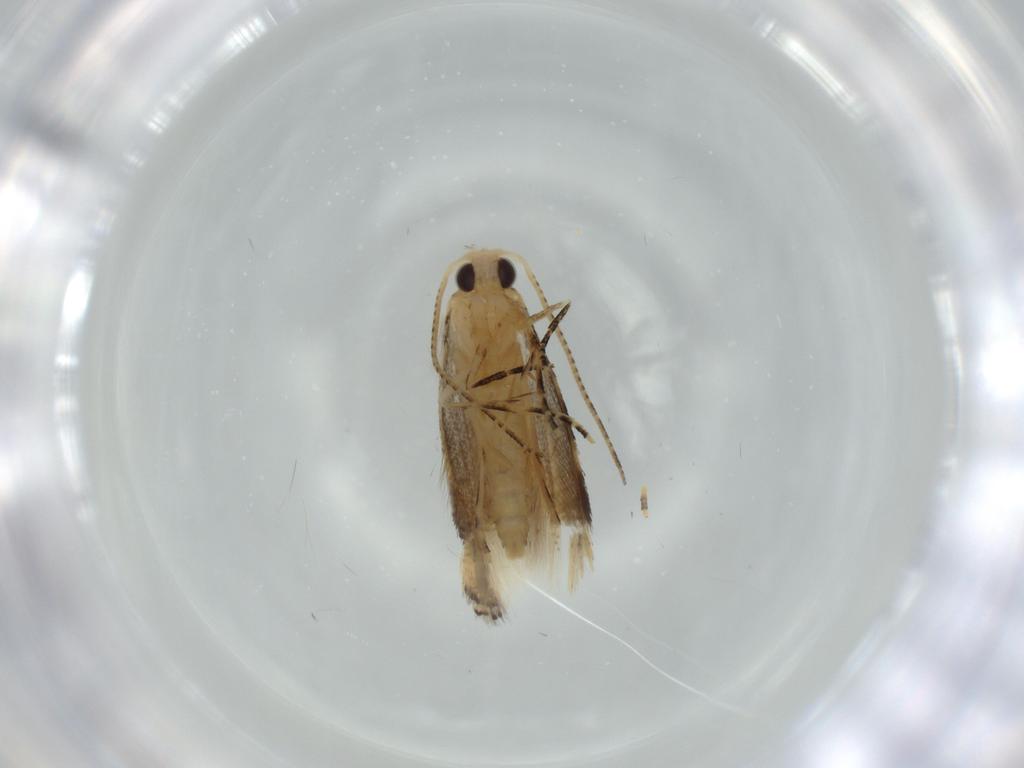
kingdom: Animalia
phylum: Arthropoda
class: Insecta
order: Lepidoptera
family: Bucculatricidae
